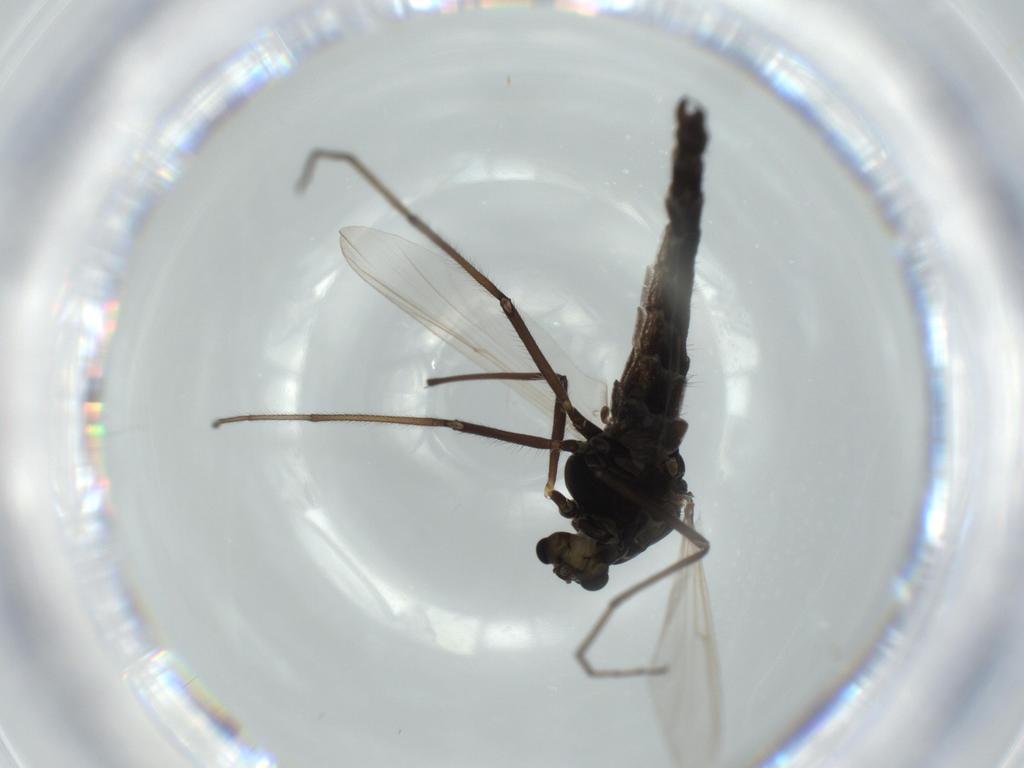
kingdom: Animalia
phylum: Arthropoda
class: Insecta
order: Diptera
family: Chironomidae
